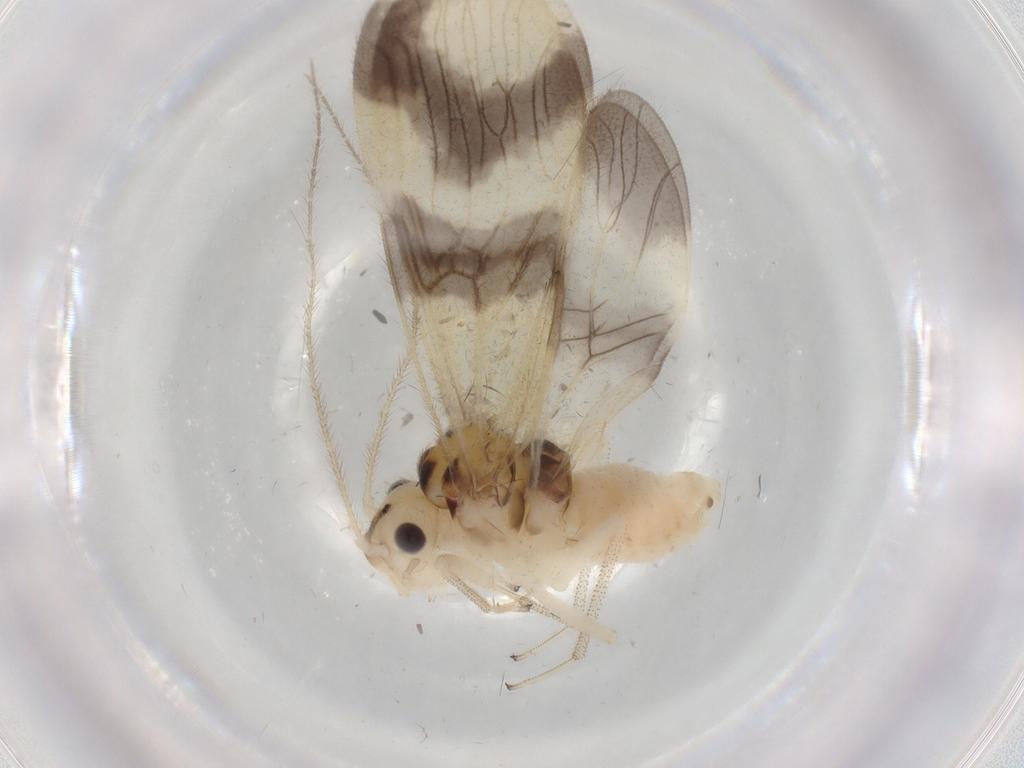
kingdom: Animalia
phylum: Arthropoda
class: Insecta
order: Psocodea
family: Amphipsocidae
